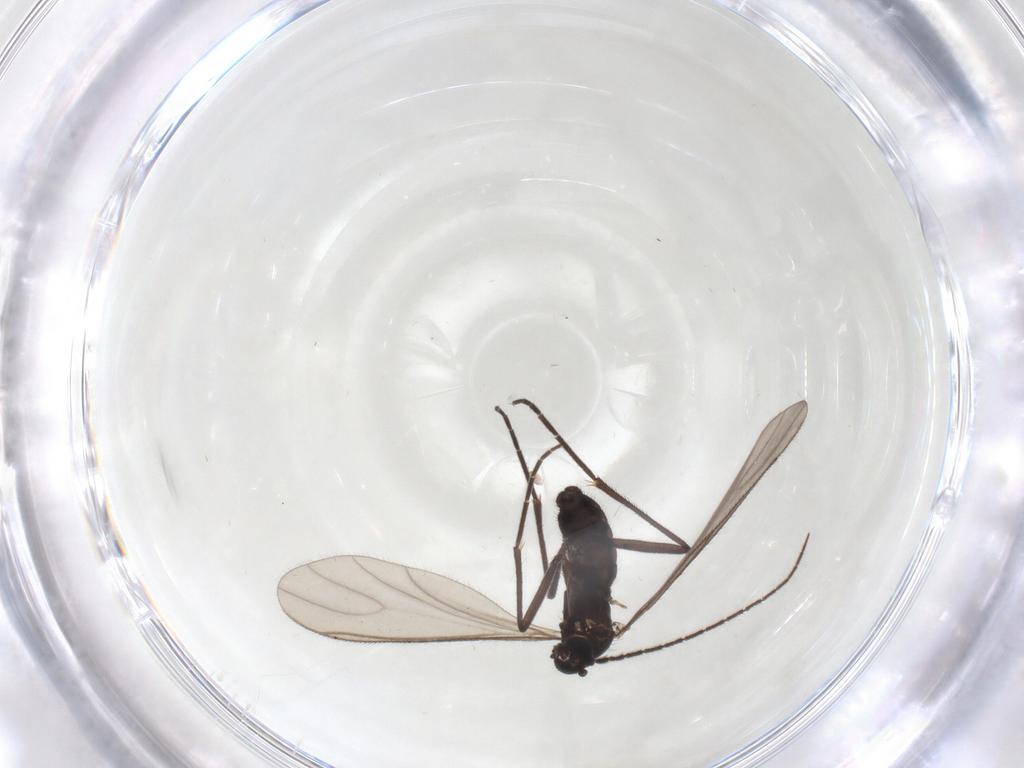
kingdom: Animalia
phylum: Arthropoda
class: Insecta
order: Diptera
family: Sciaridae
